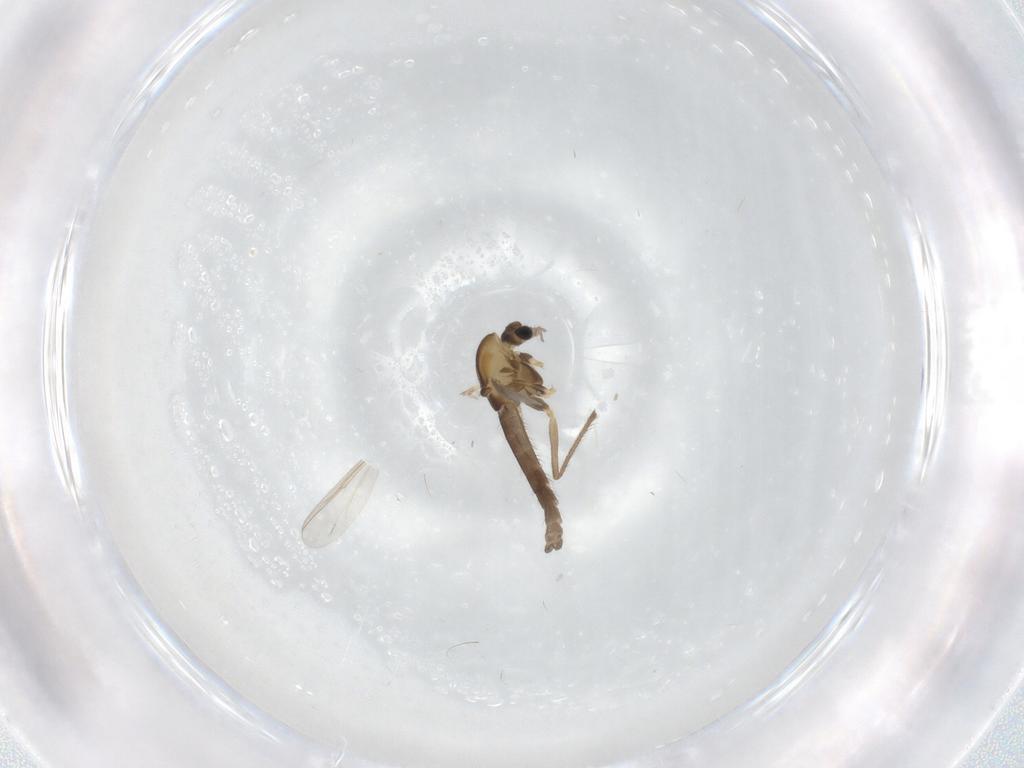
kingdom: Animalia
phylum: Arthropoda
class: Insecta
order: Diptera
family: Chironomidae
